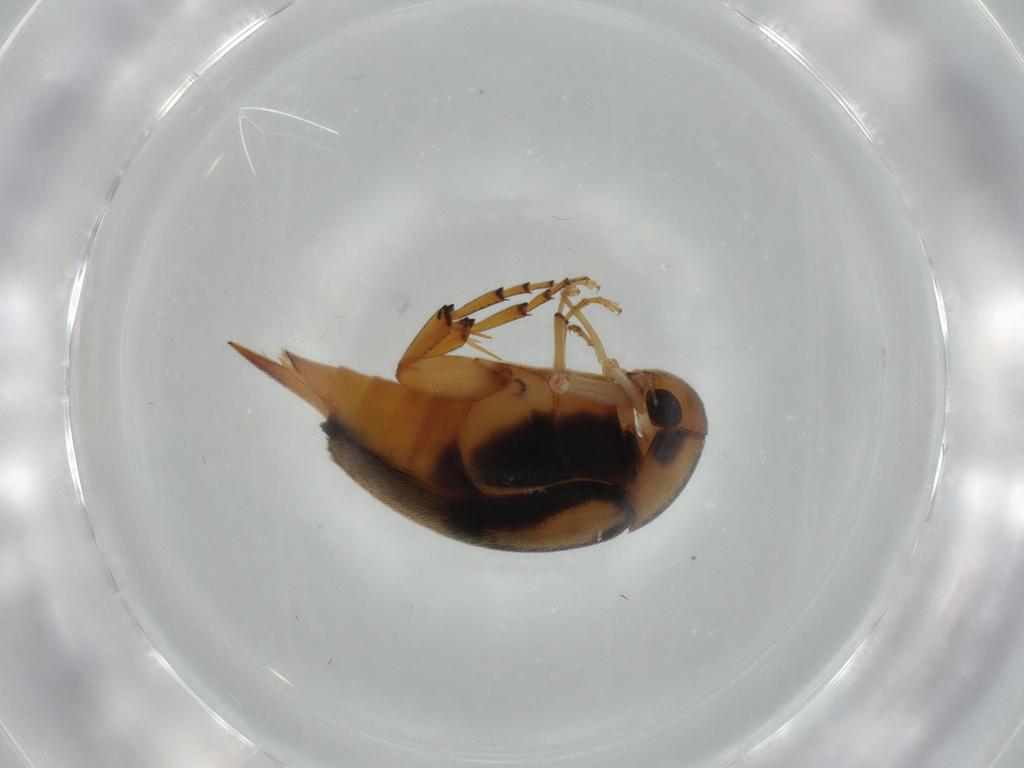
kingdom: Animalia
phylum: Arthropoda
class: Insecta
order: Coleoptera
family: Mordellidae
